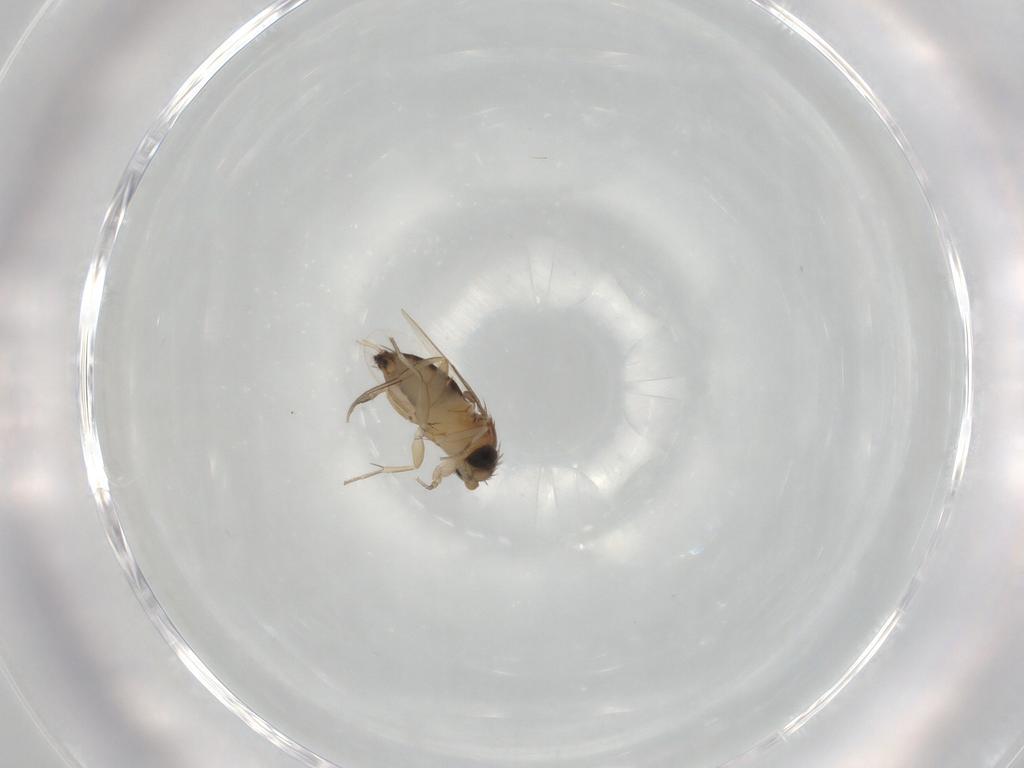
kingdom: Animalia
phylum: Arthropoda
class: Insecta
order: Diptera
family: Phoridae
